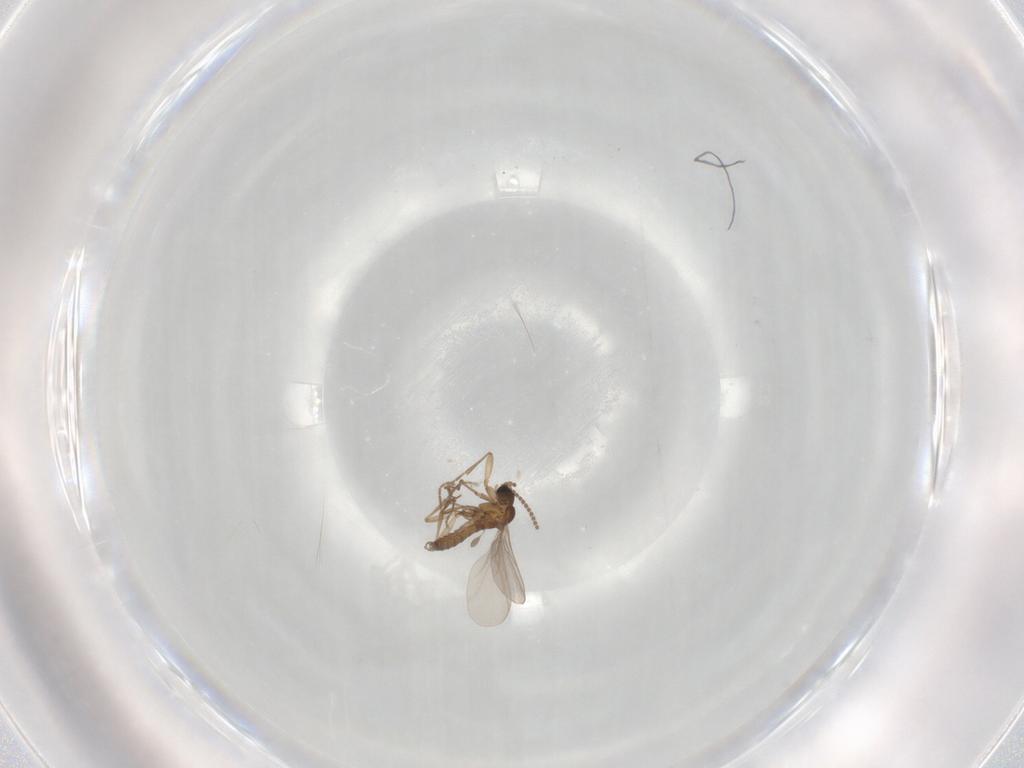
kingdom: Animalia
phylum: Arthropoda
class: Insecta
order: Diptera
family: Sciaridae
